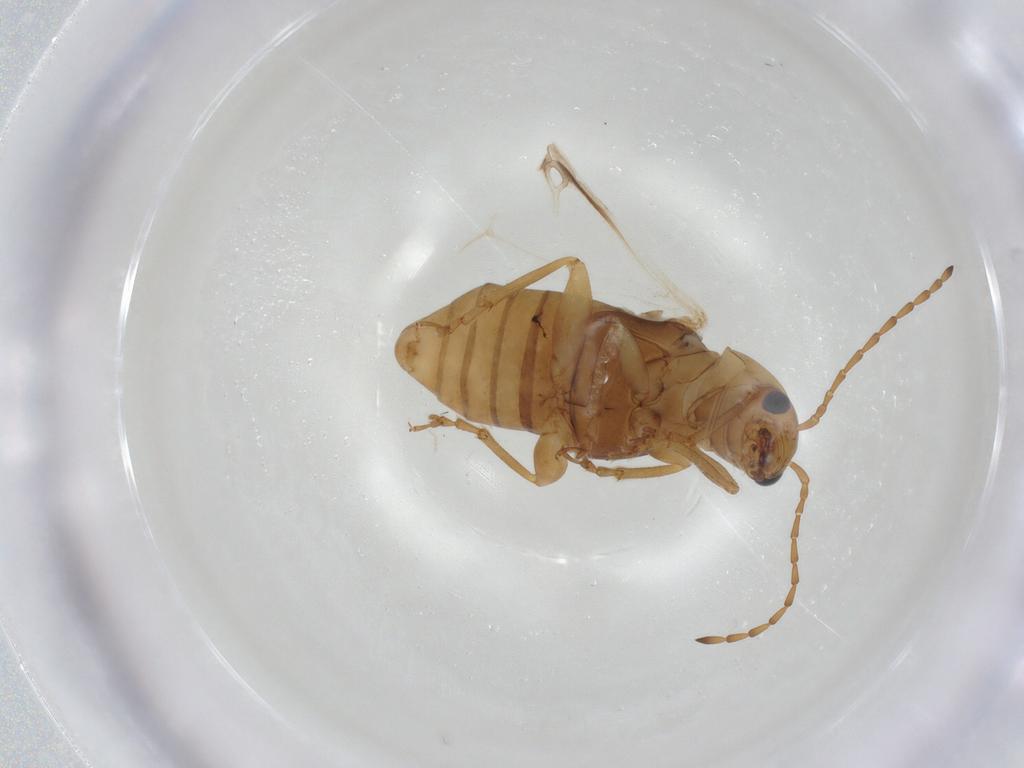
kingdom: Animalia
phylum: Arthropoda
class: Insecta
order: Coleoptera
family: Chrysomelidae
